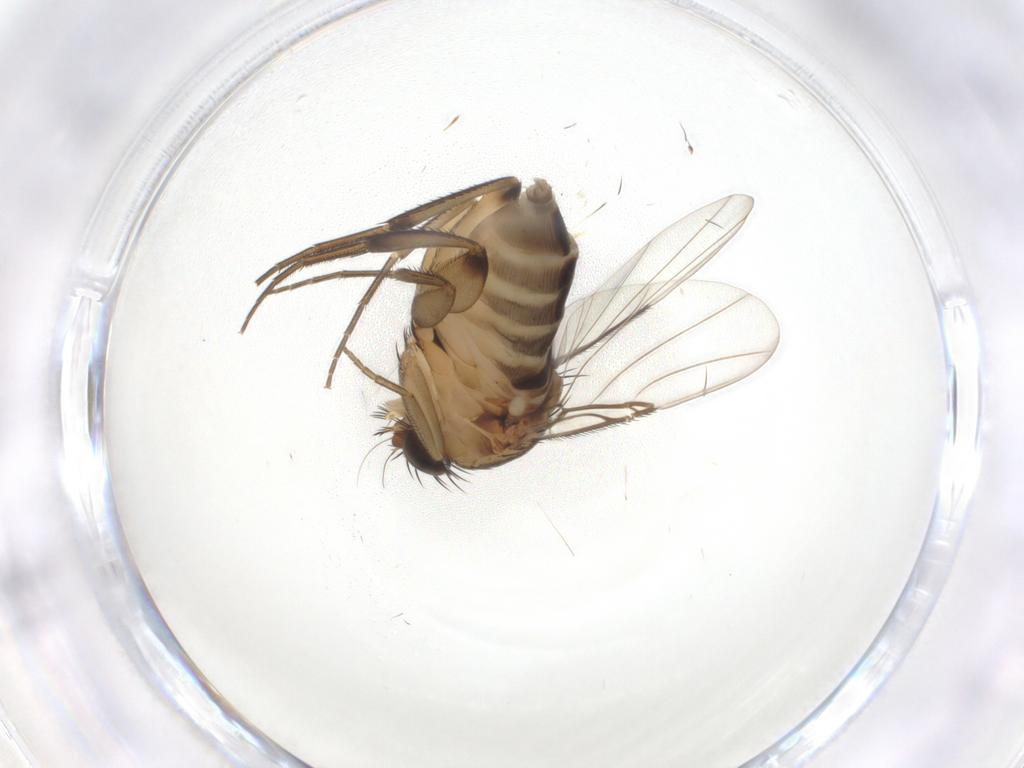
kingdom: Animalia
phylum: Arthropoda
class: Insecta
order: Diptera
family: Phoridae
